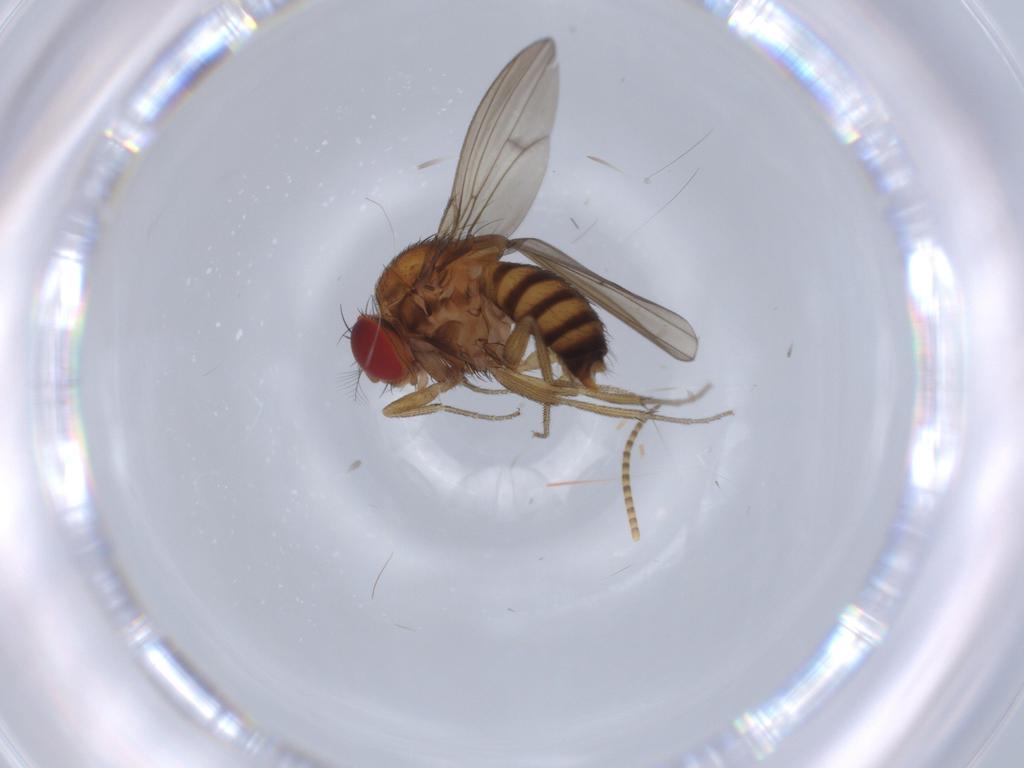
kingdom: Animalia
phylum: Arthropoda
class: Insecta
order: Diptera
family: Drosophilidae
